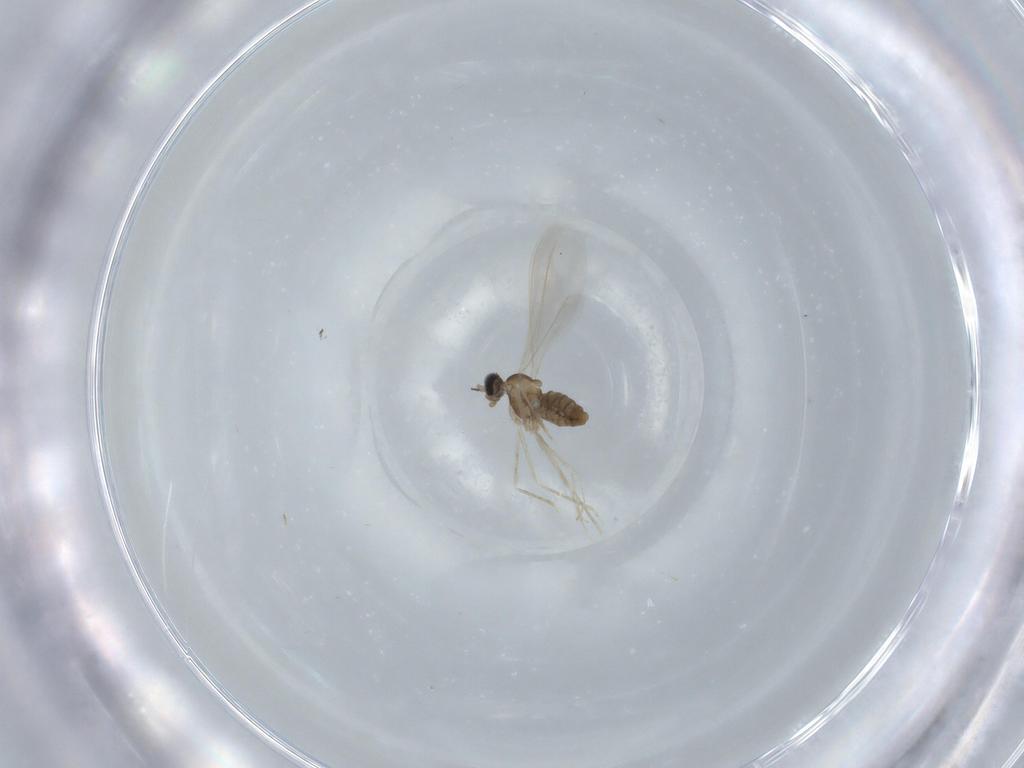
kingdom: Animalia
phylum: Arthropoda
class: Insecta
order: Diptera
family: Cecidomyiidae
